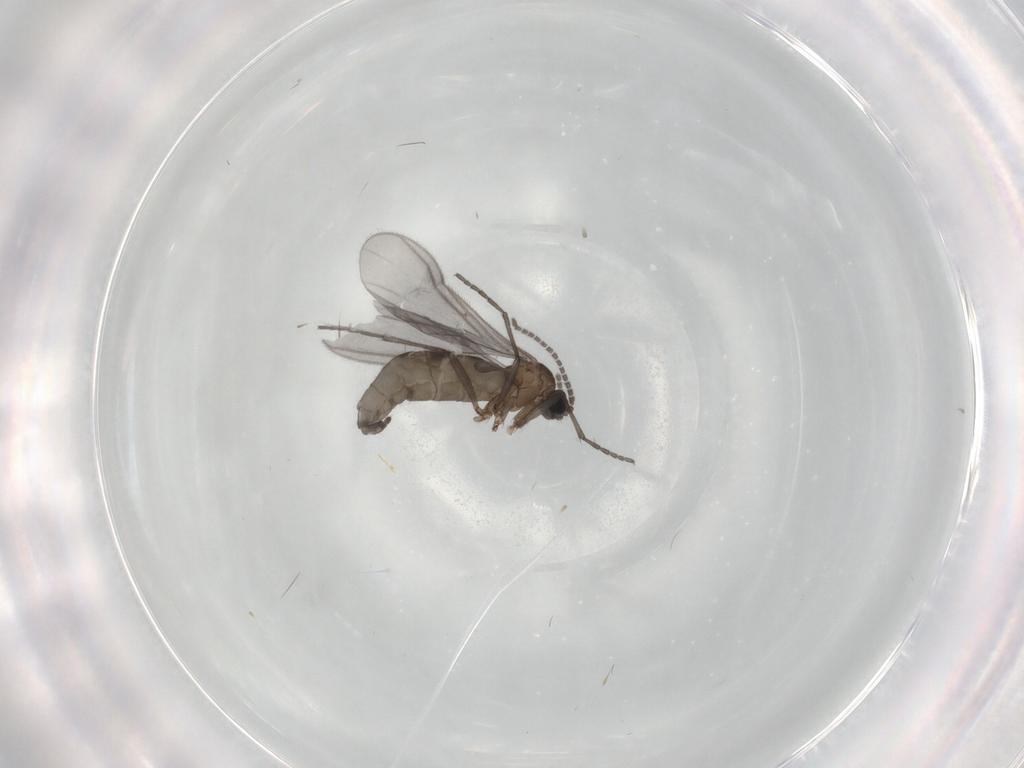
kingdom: Animalia
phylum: Arthropoda
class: Insecta
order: Diptera
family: Sciaridae
